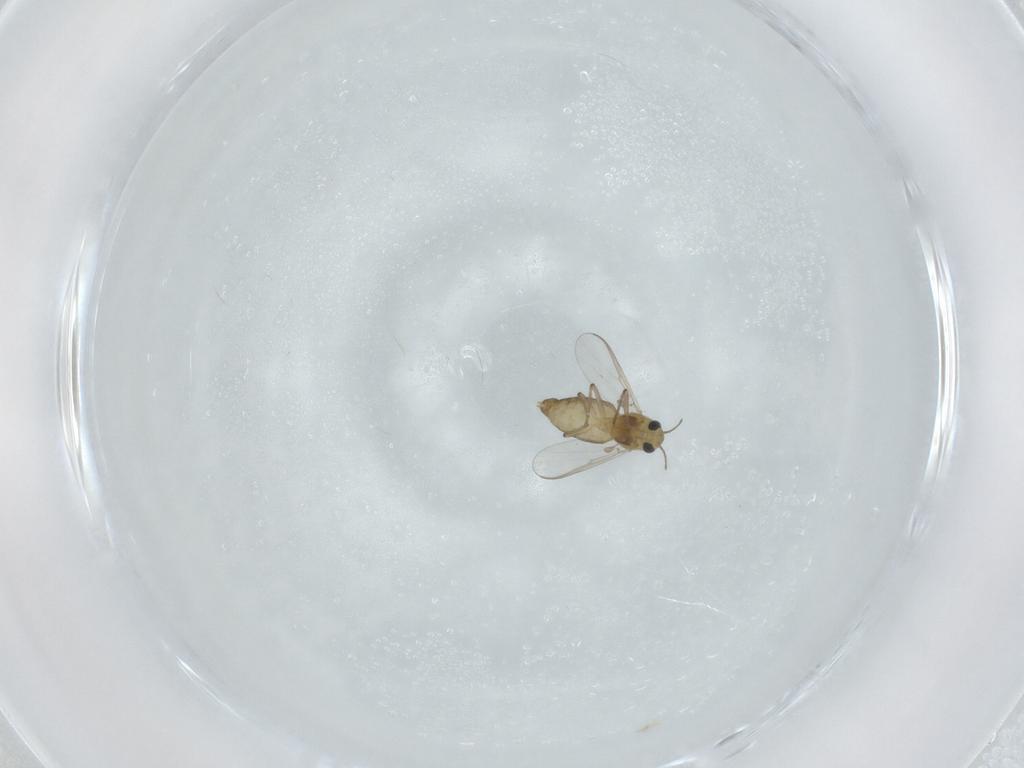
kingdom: Animalia
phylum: Arthropoda
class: Insecta
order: Diptera
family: Chironomidae
